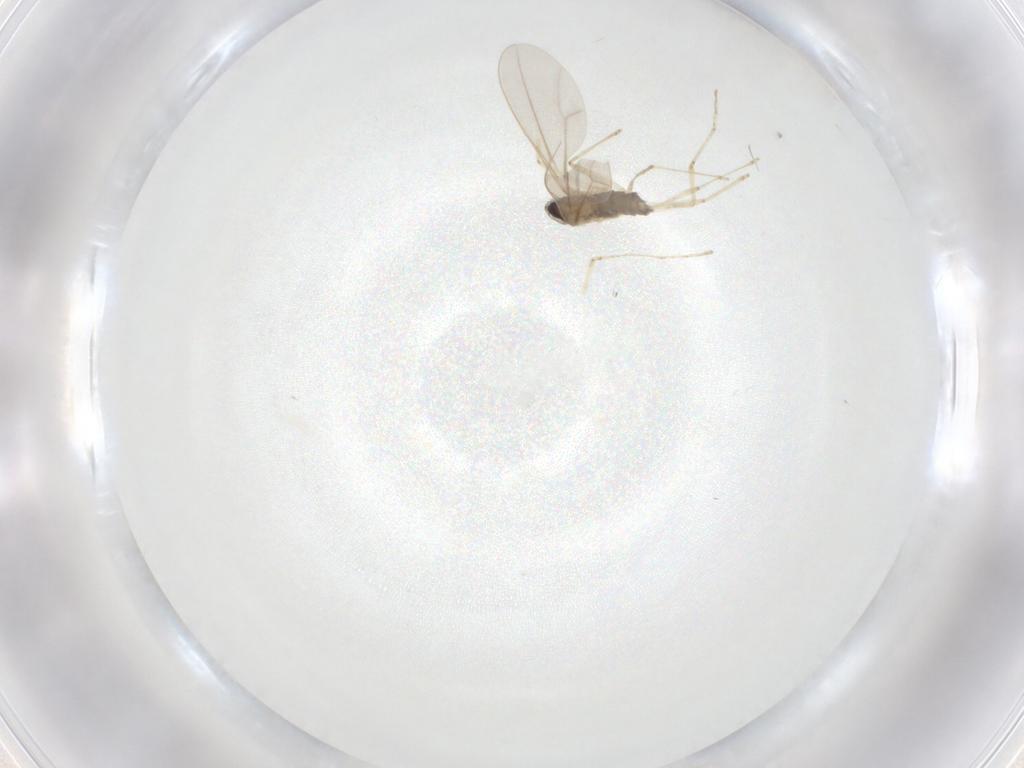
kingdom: Animalia
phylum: Arthropoda
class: Insecta
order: Diptera
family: Cecidomyiidae
